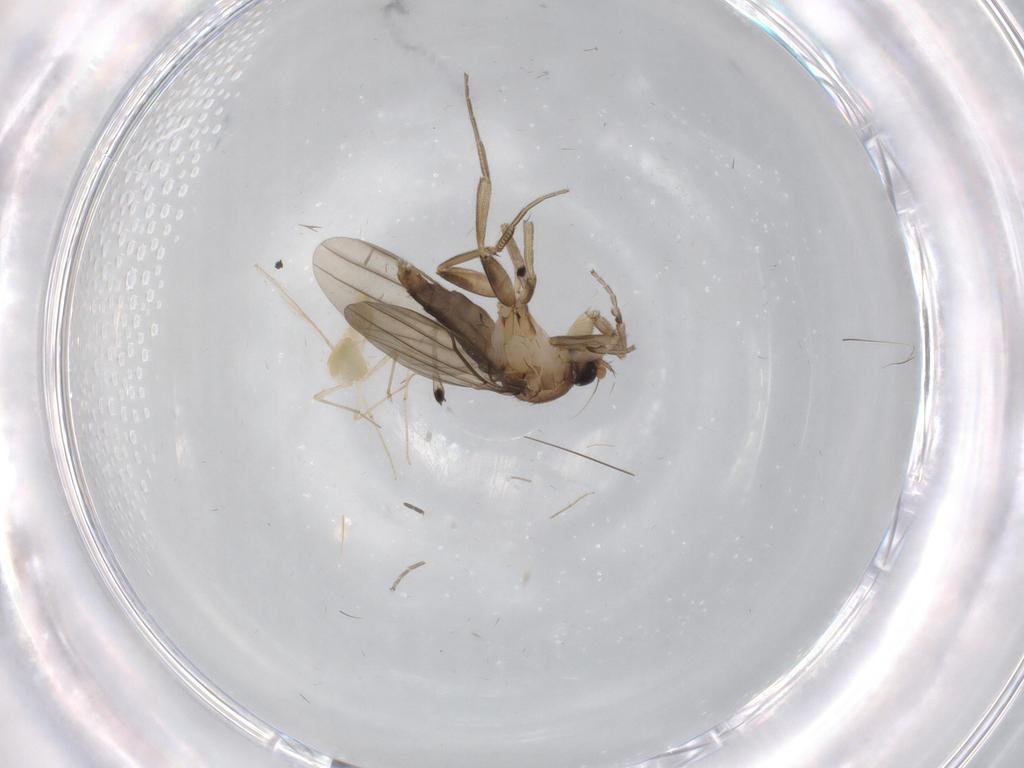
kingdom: Animalia
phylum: Arthropoda
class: Insecta
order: Diptera
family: Chironomidae
